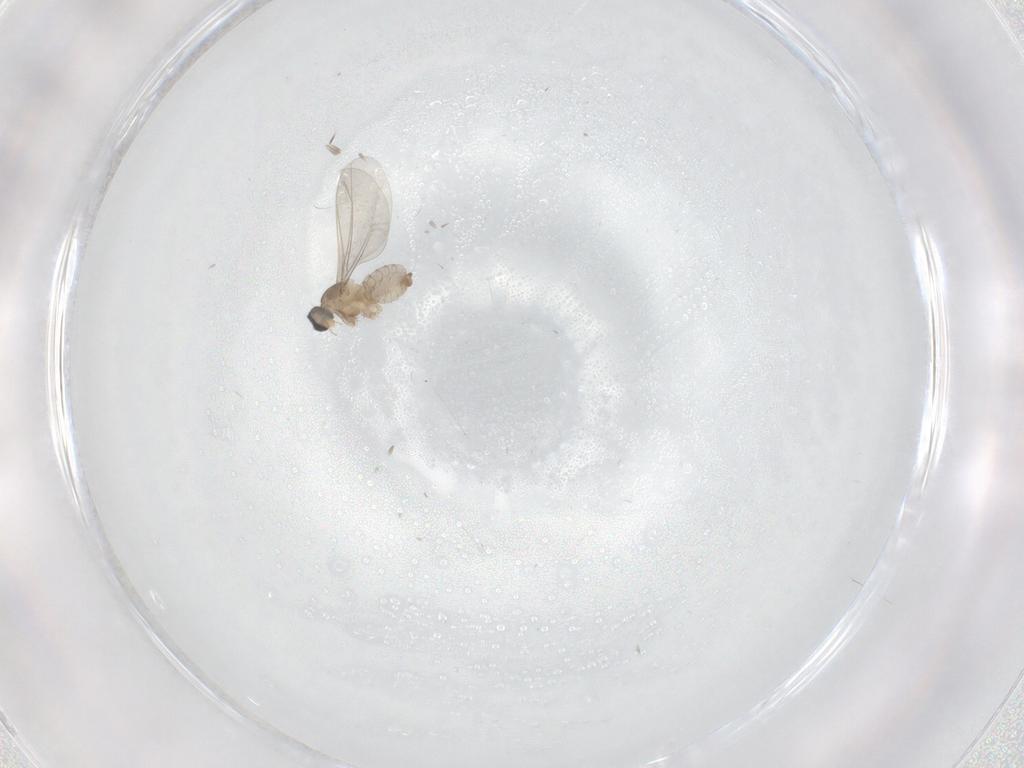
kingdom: Animalia
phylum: Arthropoda
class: Insecta
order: Diptera
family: Cecidomyiidae
